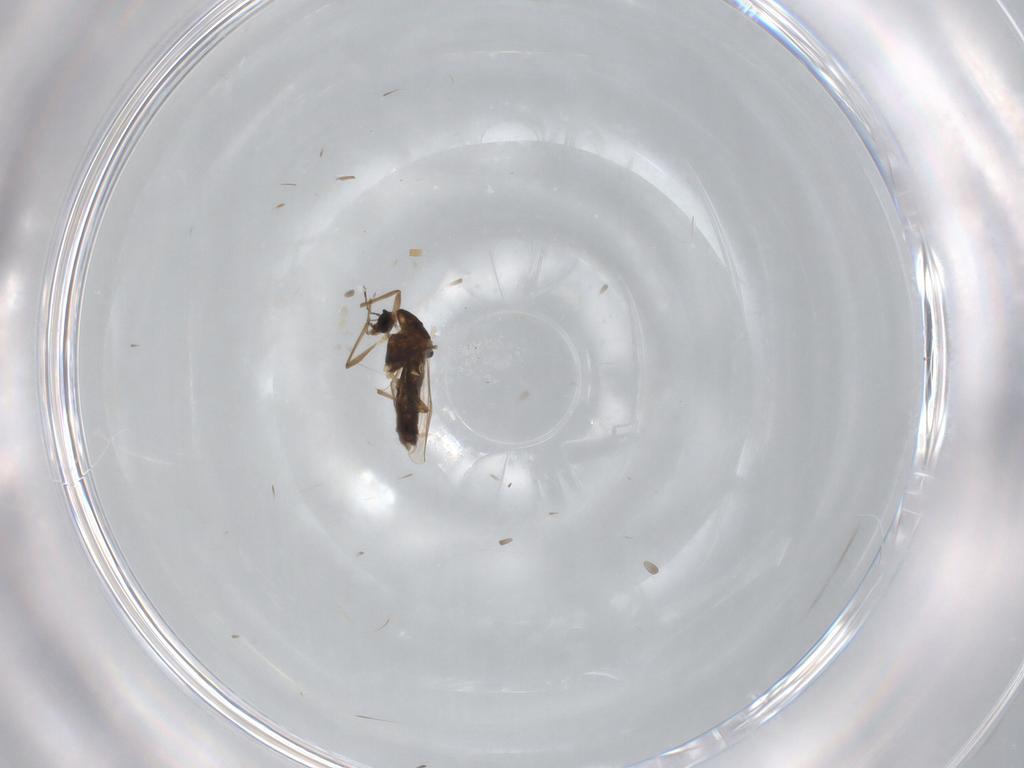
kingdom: Animalia
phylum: Arthropoda
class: Insecta
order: Diptera
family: Chironomidae
